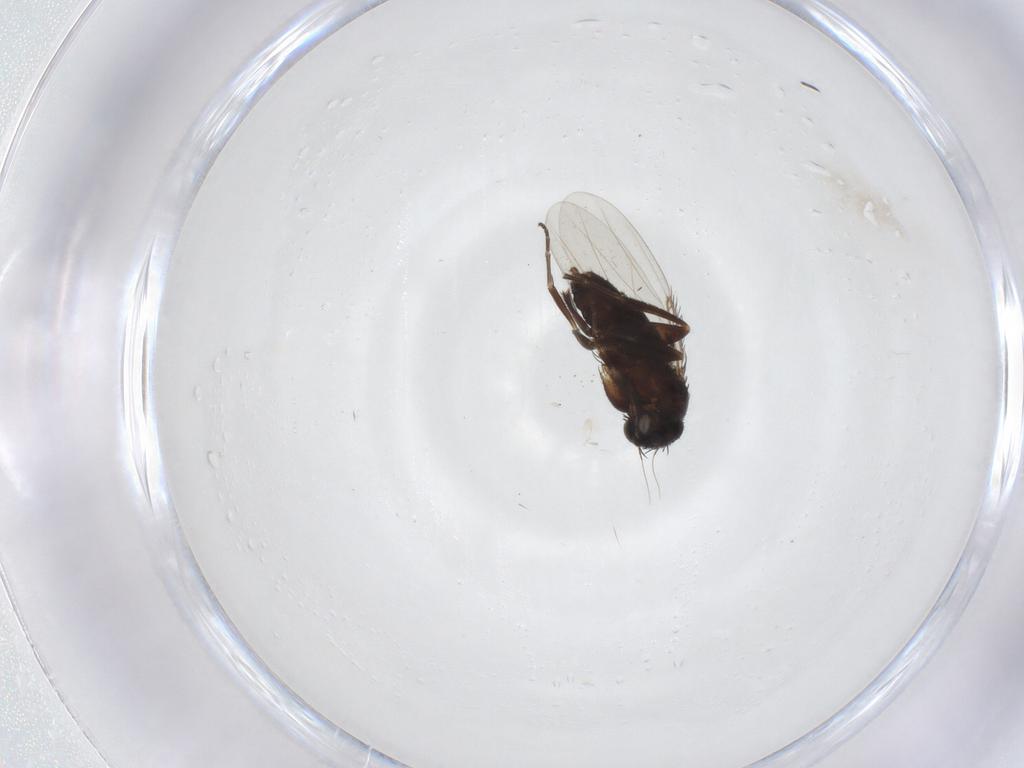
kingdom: Animalia
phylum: Arthropoda
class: Insecta
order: Diptera
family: Phoridae
